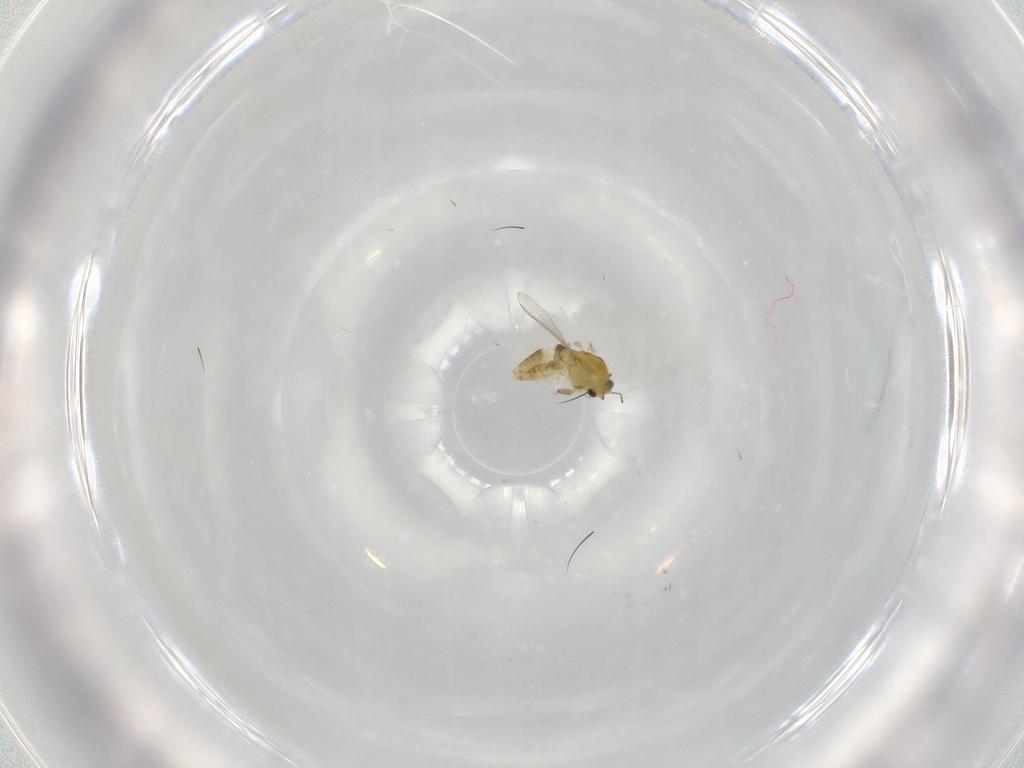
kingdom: Animalia
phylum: Arthropoda
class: Insecta
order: Diptera
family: Chironomidae
